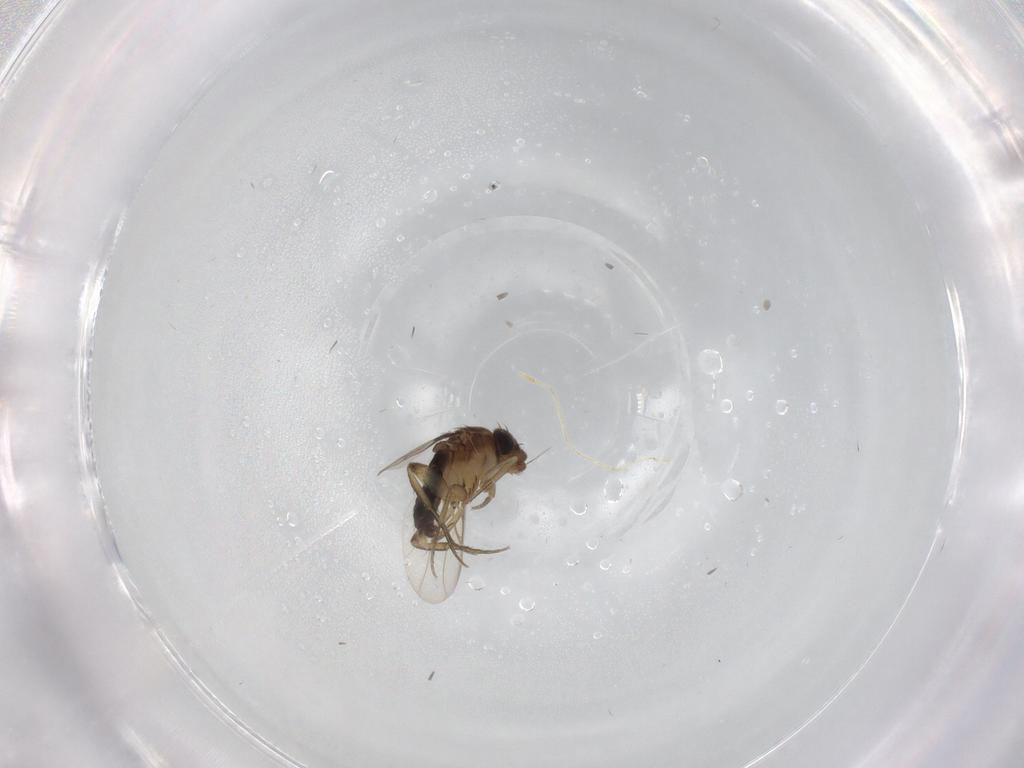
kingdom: Animalia
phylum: Arthropoda
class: Insecta
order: Diptera
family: Phoridae
